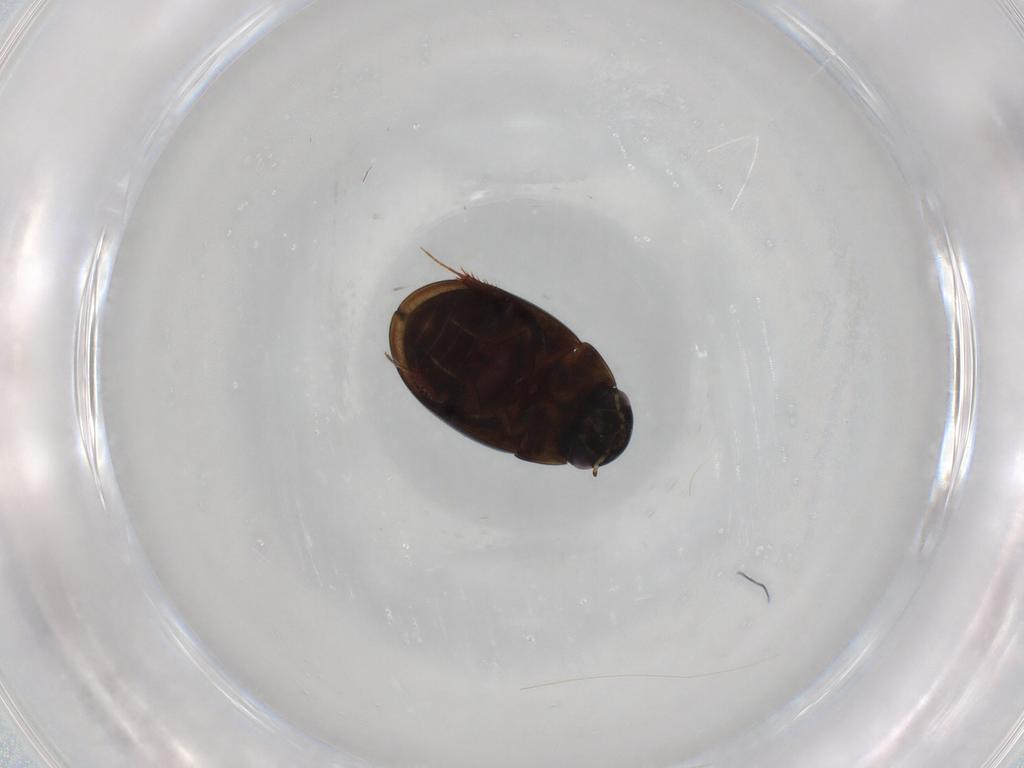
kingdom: Animalia
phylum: Arthropoda
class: Insecta
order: Coleoptera
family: Hydrophilidae
